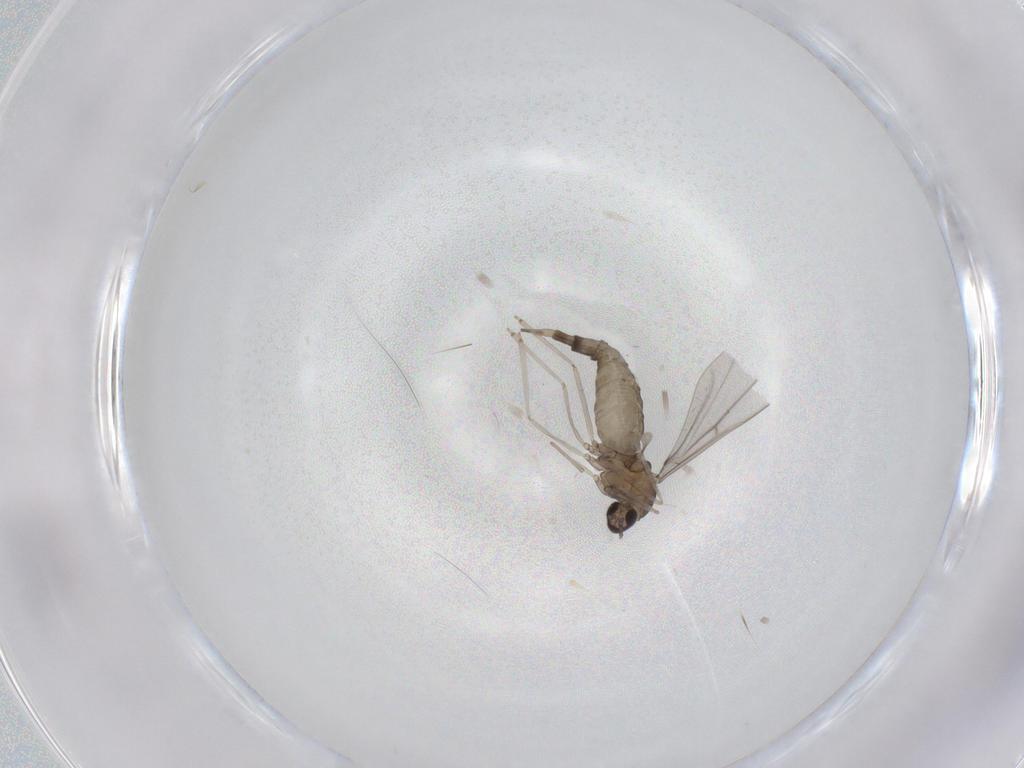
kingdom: Animalia
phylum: Arthropoda
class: Insecta
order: Diptera
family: Cecidomyiidae
